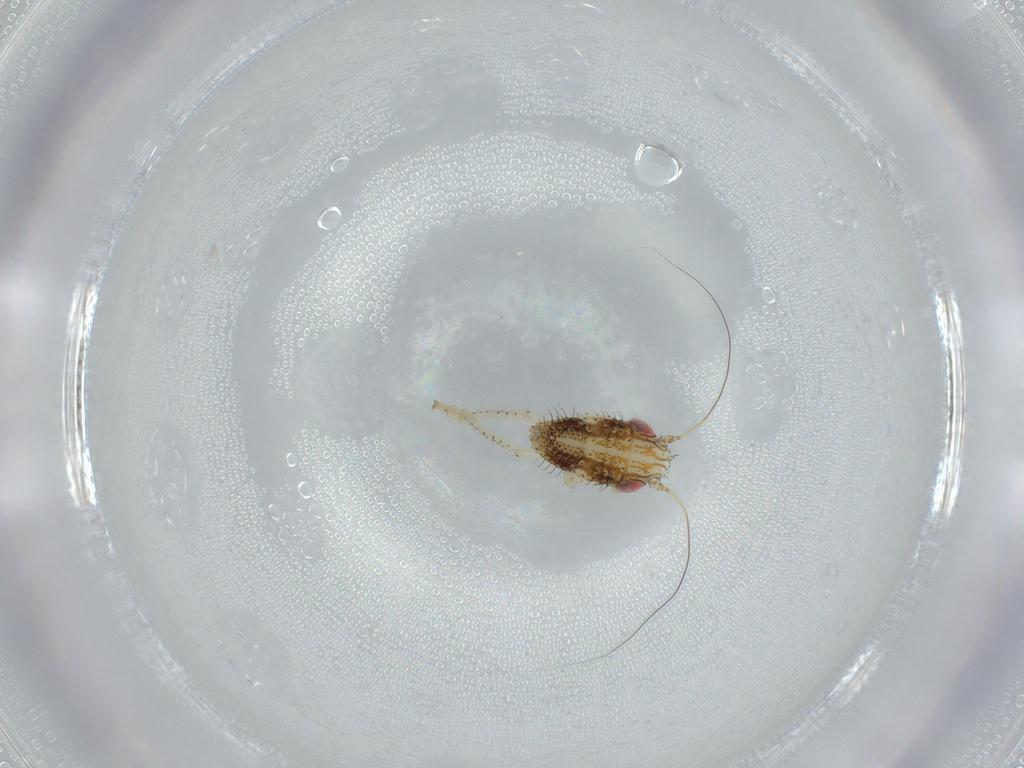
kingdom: Animalia
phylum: Arthropoda
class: Insecta
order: Hemiptera
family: Cicadellidae
